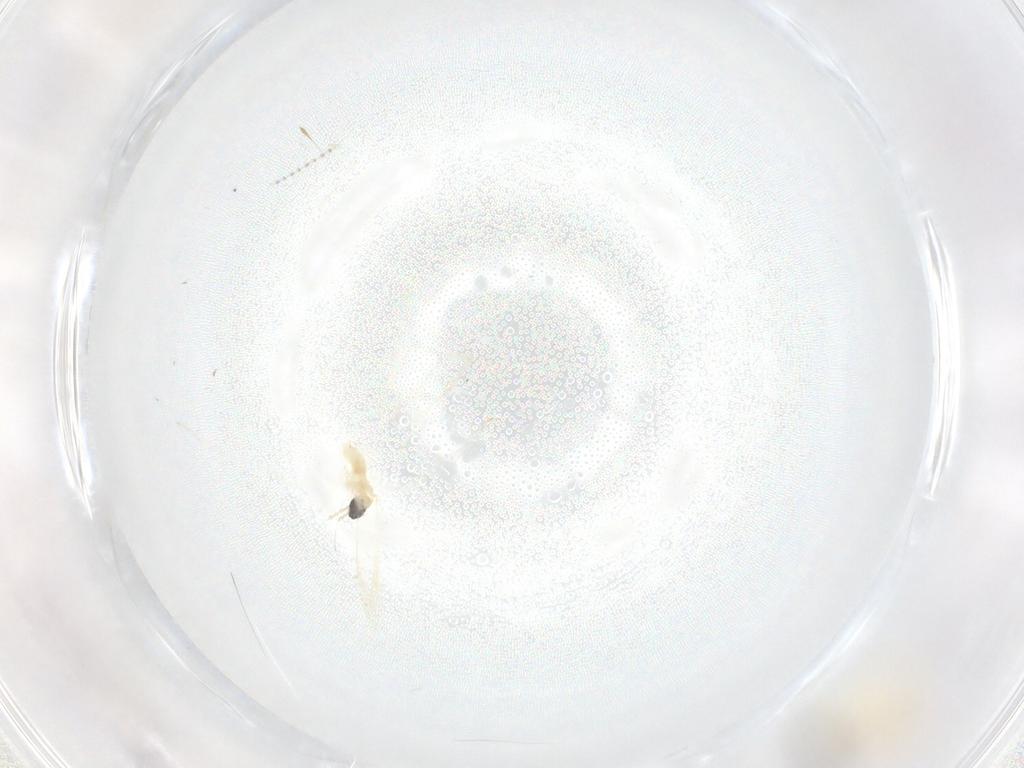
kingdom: Animalia
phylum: Arthropoda
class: Insecta
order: Diptera
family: Cecidomyiidae
